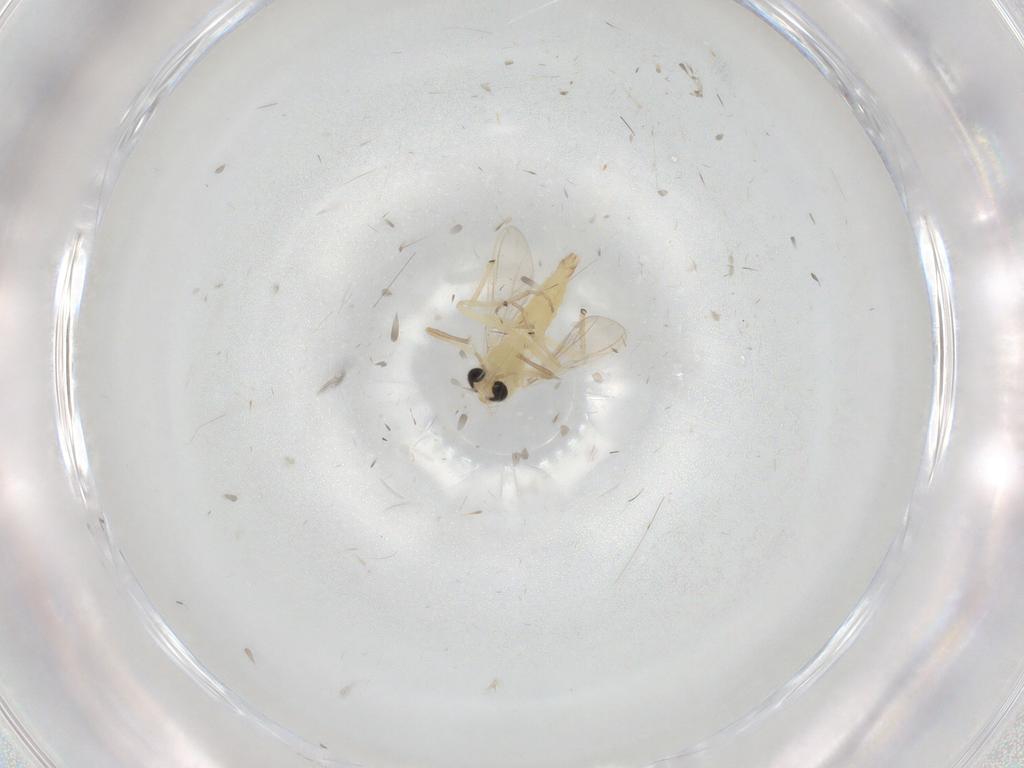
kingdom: Animalia
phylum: Arthropoda
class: Insecta
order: Diptera
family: Chironomidae
